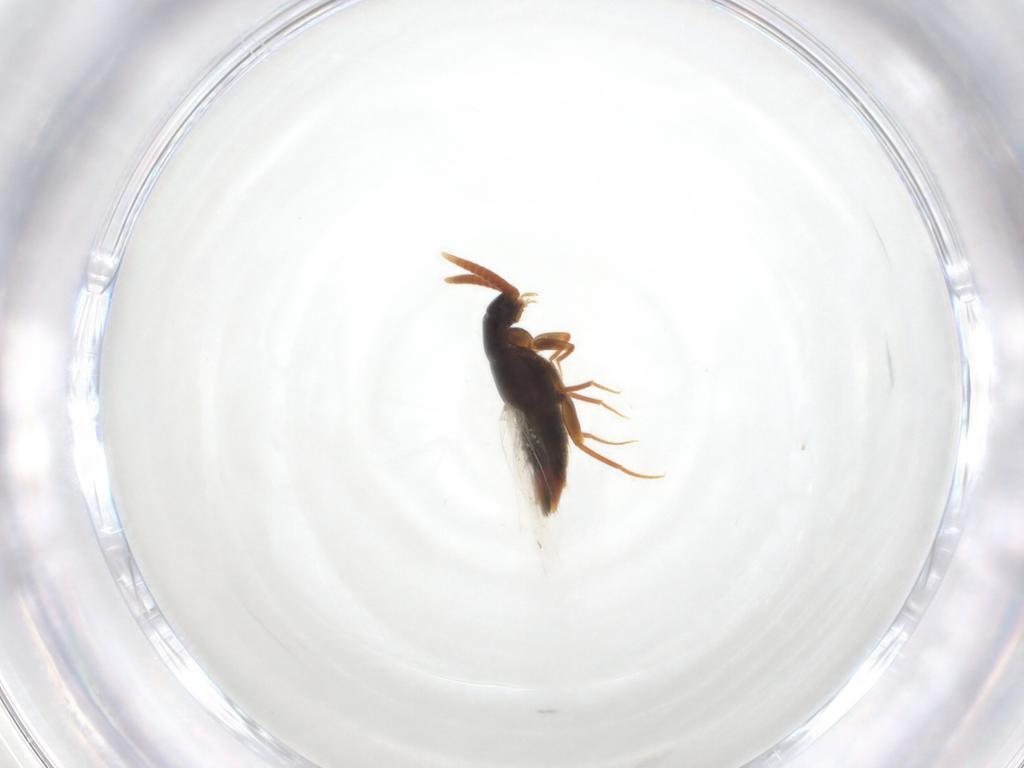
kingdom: Animalia
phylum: Arthropoda
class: Insecta
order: Coleoptera
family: Staphylinidae
